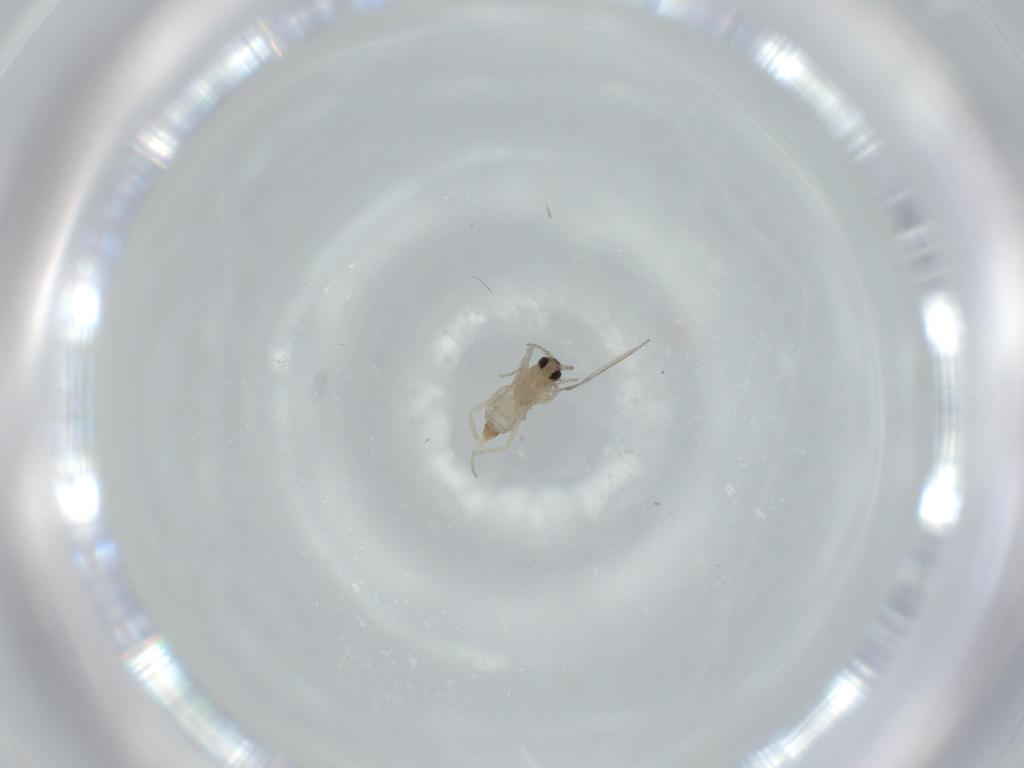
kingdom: Animalia
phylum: Arthropoda
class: Insecta
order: Diptera
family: Cecidomyiidae
